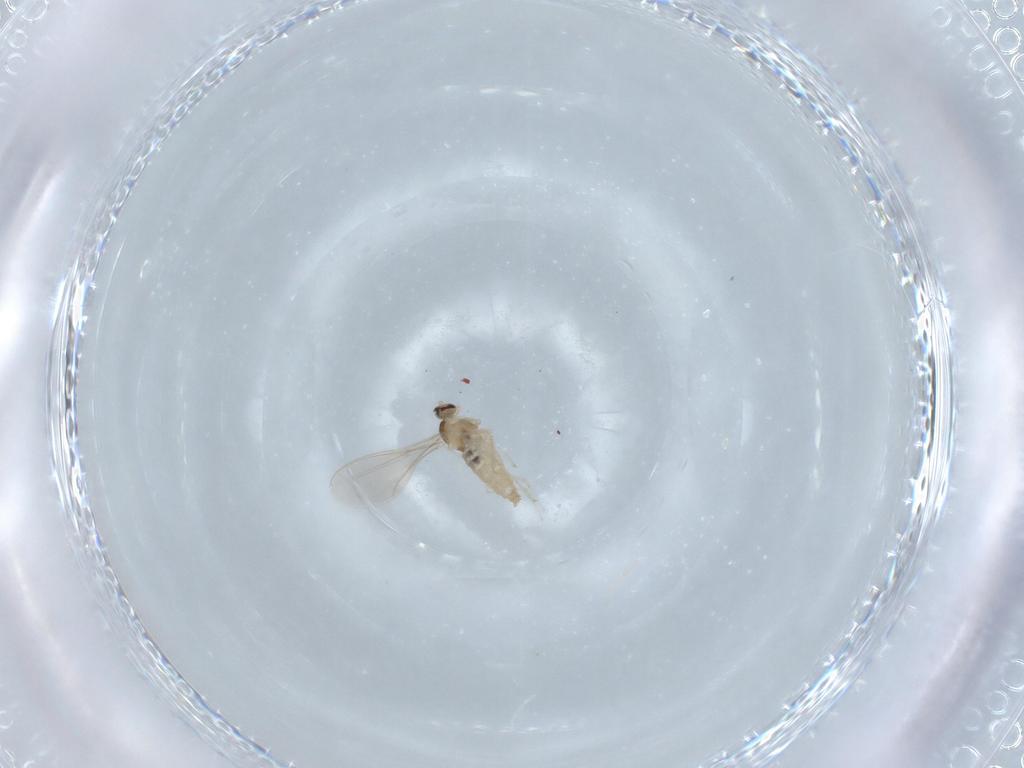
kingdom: Animalia
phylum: Arthropoda
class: Insecta
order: Diptera
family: Cecidomyiidae
